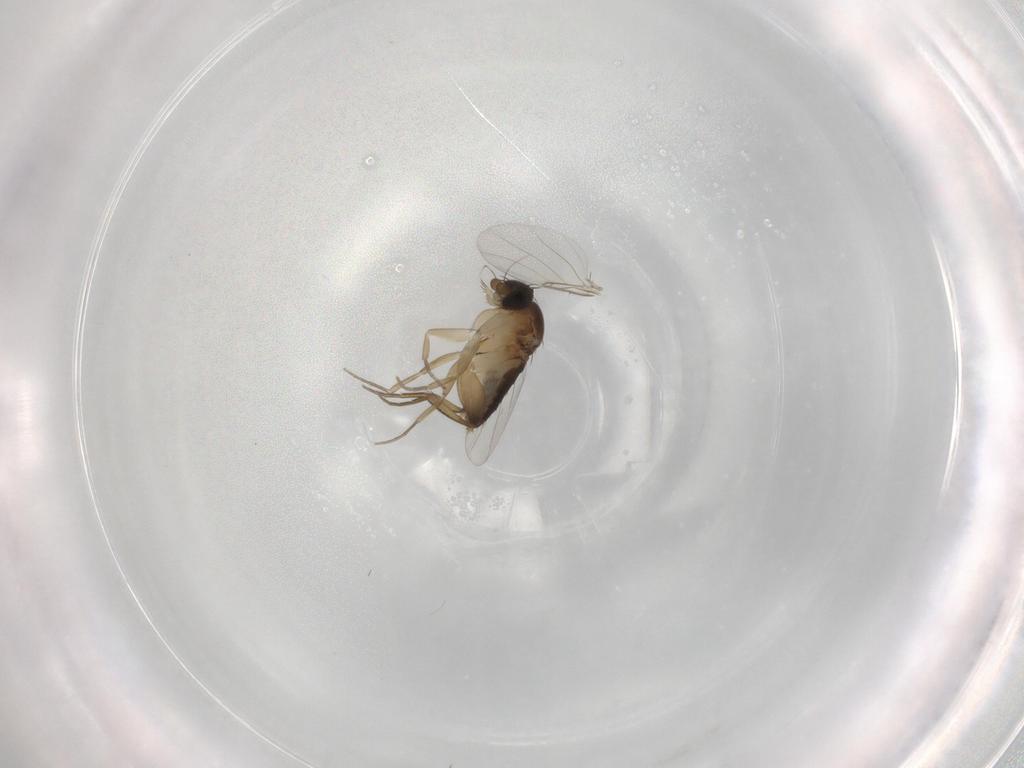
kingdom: Animalia
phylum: Arthropoda
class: Insecta
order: Diptera
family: Phoridae
